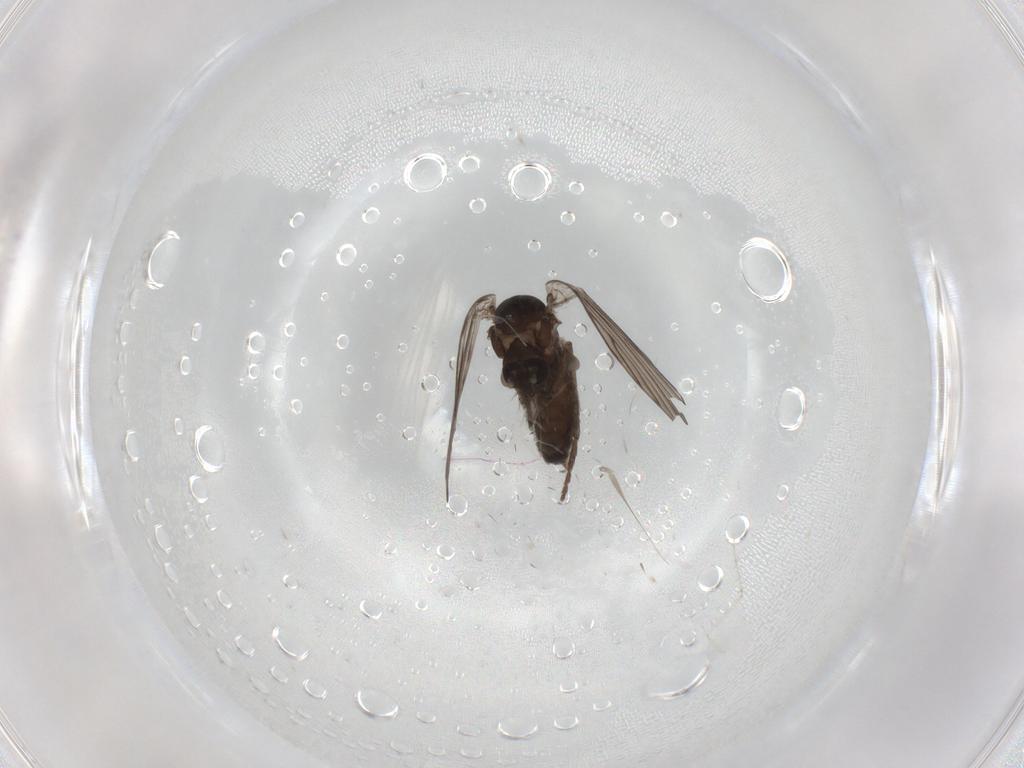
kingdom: Animalia
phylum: Arthropoda
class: Insecta
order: Diptera
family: Psychodidae
